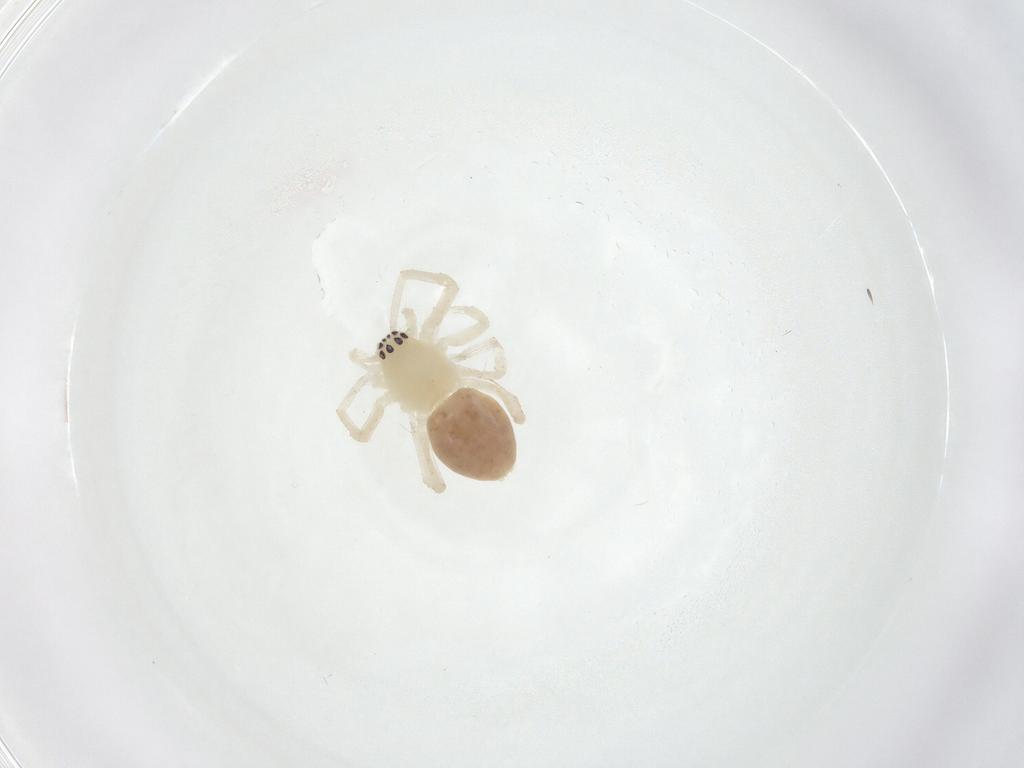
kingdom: Animalia
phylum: Arthropoda
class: Arachnida
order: Araneae
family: Anyphaenidae
